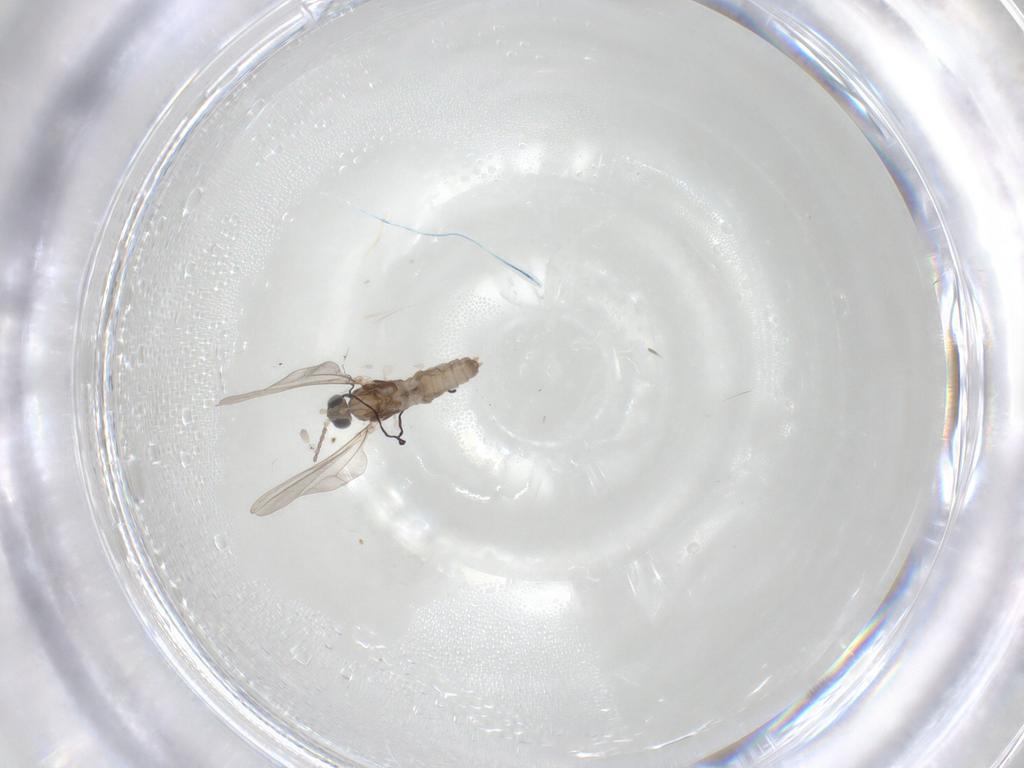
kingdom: Animalia
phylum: Arthropoda
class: Insecta
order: Diptera
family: Cecidomyiidae
